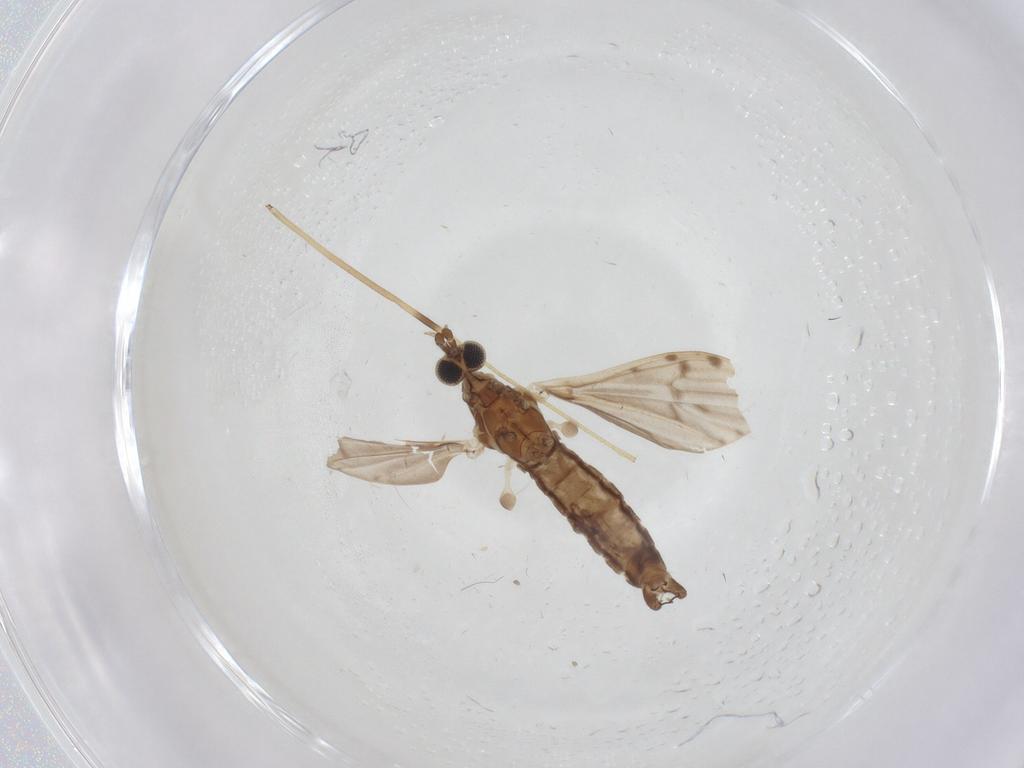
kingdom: Animalia
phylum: Arthropoda
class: Insecta
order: Diptera
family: Limoniidae
